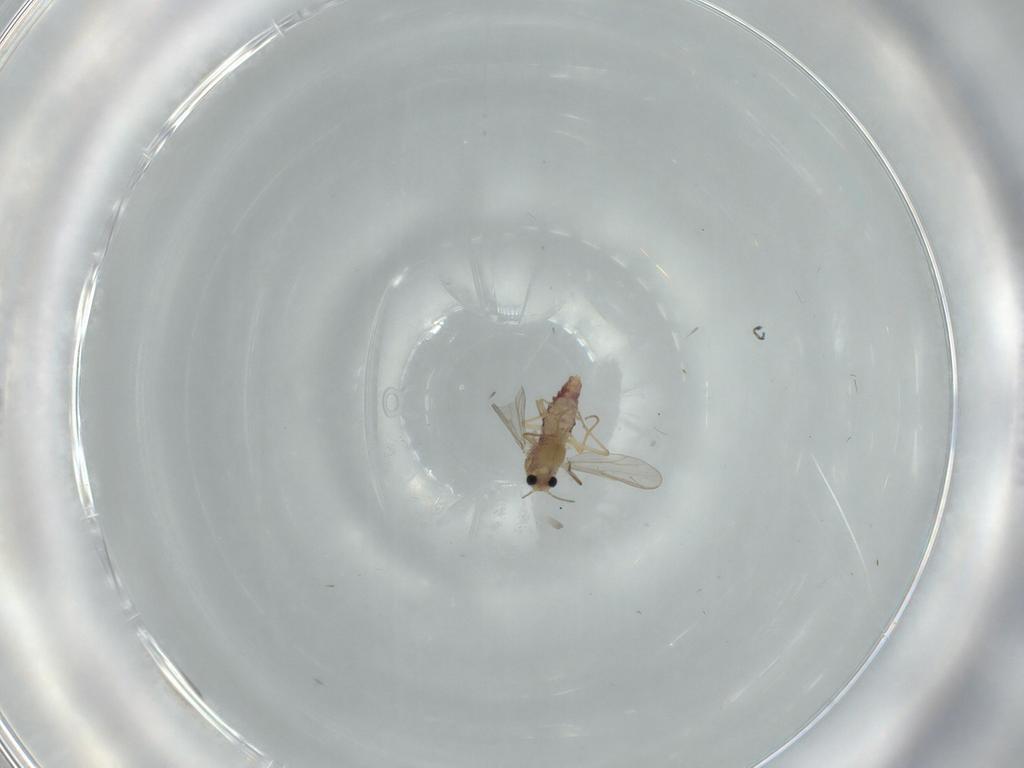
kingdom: Animalia
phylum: Arthropoda
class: Insecta
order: Diptera
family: Chironomidae
